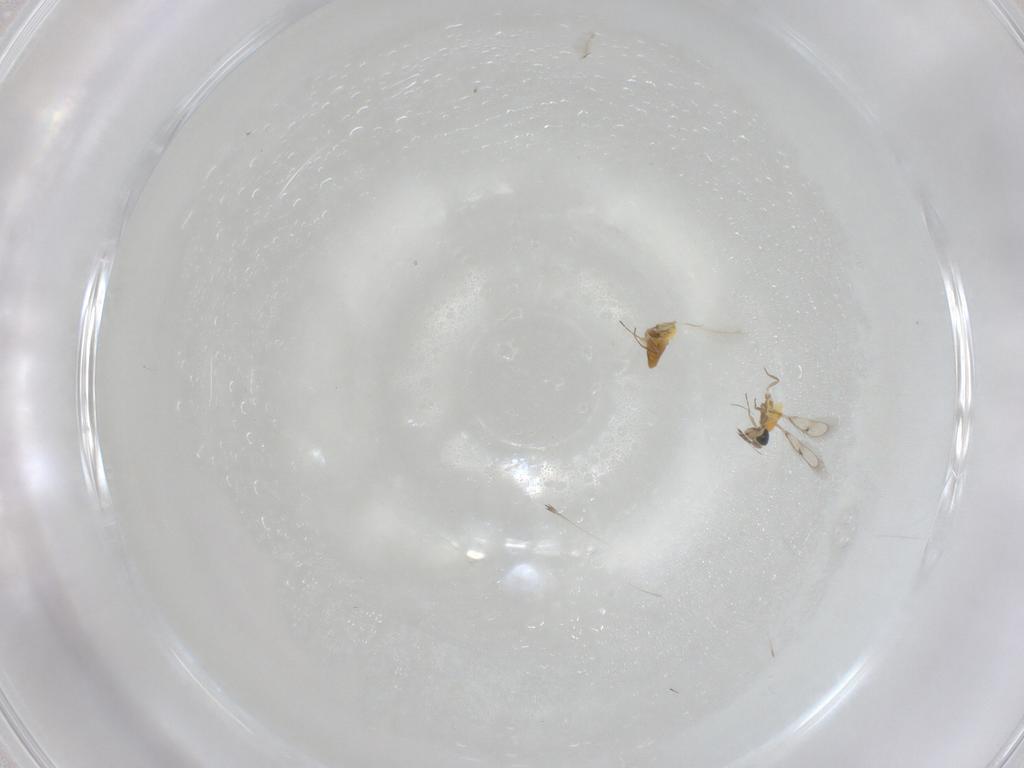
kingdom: Animalia
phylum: Arthropoda
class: Insecta
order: Hymenoptera
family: Trichogrammatidae
